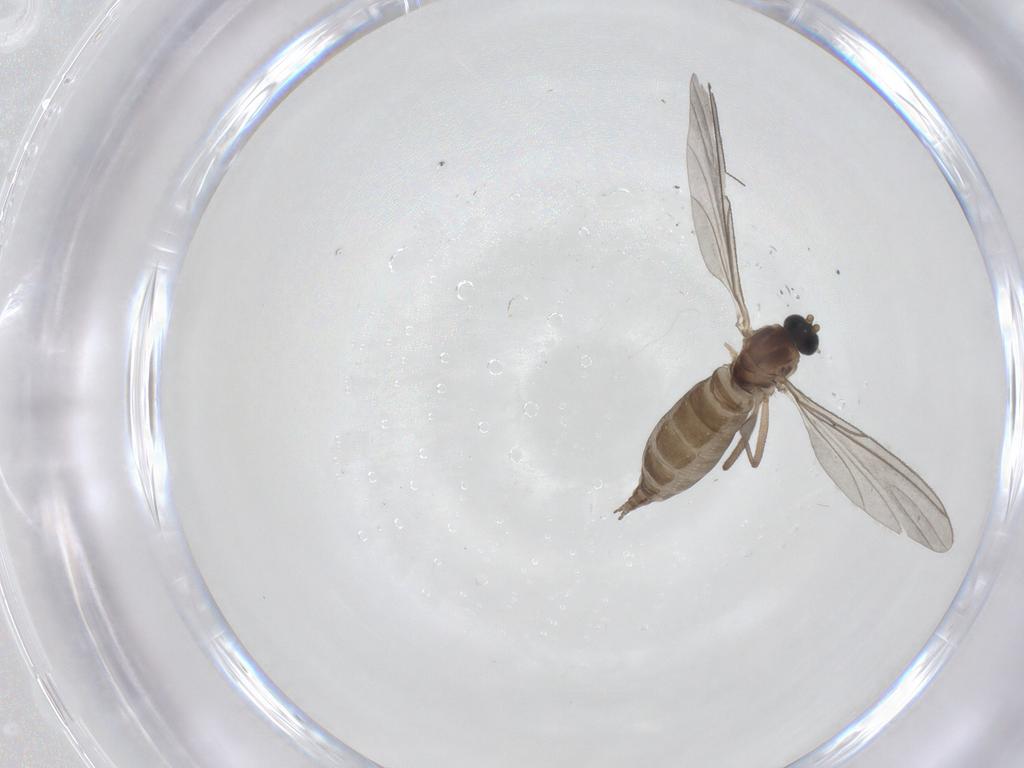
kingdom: Animalia
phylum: Arthropoda
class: Insecta
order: Diptera
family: Sciaridae
